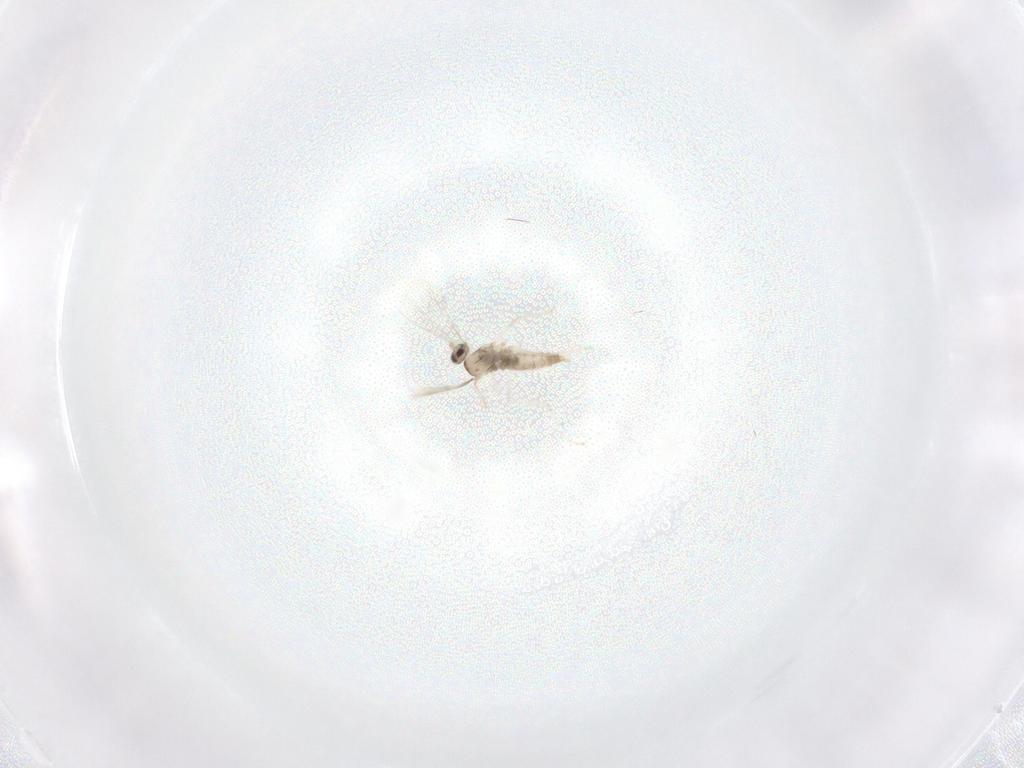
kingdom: Animalia
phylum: Arthropoda
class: Insecta
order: Diptera
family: Cecidomyiidae
